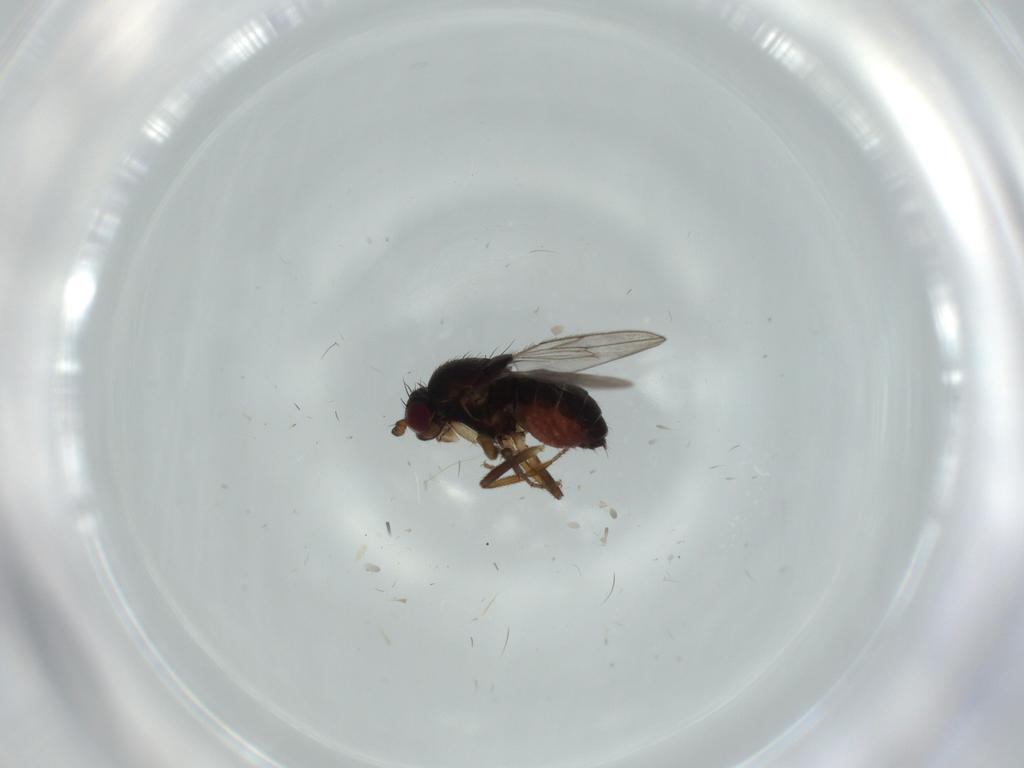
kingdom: Animalia
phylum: Arthropoda
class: Insecta
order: Diptera
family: Sphaeroceridae
